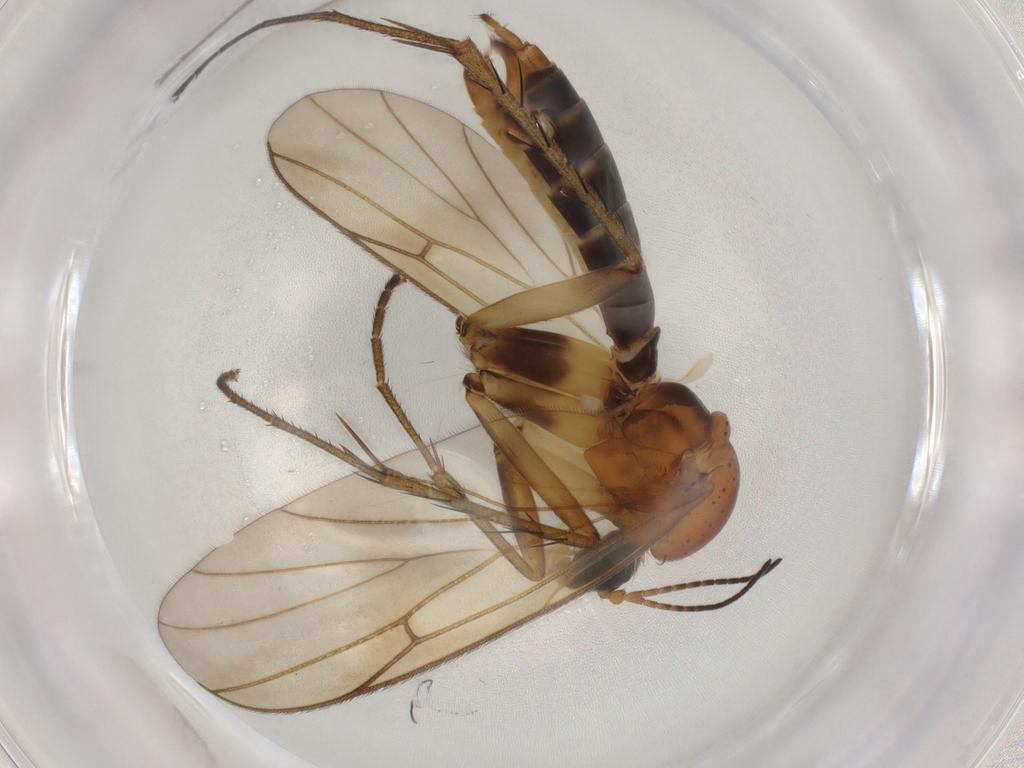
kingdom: Animalia
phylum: Arthropoda
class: Insecta
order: Diptera
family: Mycetophilidae
